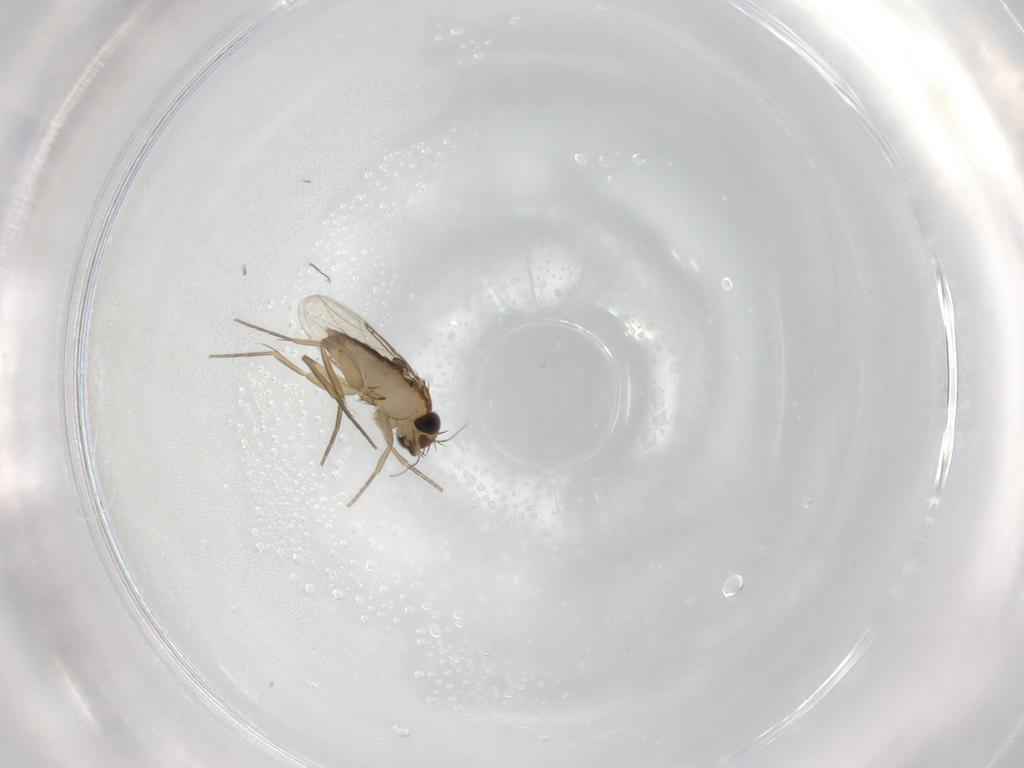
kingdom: Animalia
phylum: Arthropoda
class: Insecta
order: Diptera
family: Phoridae
